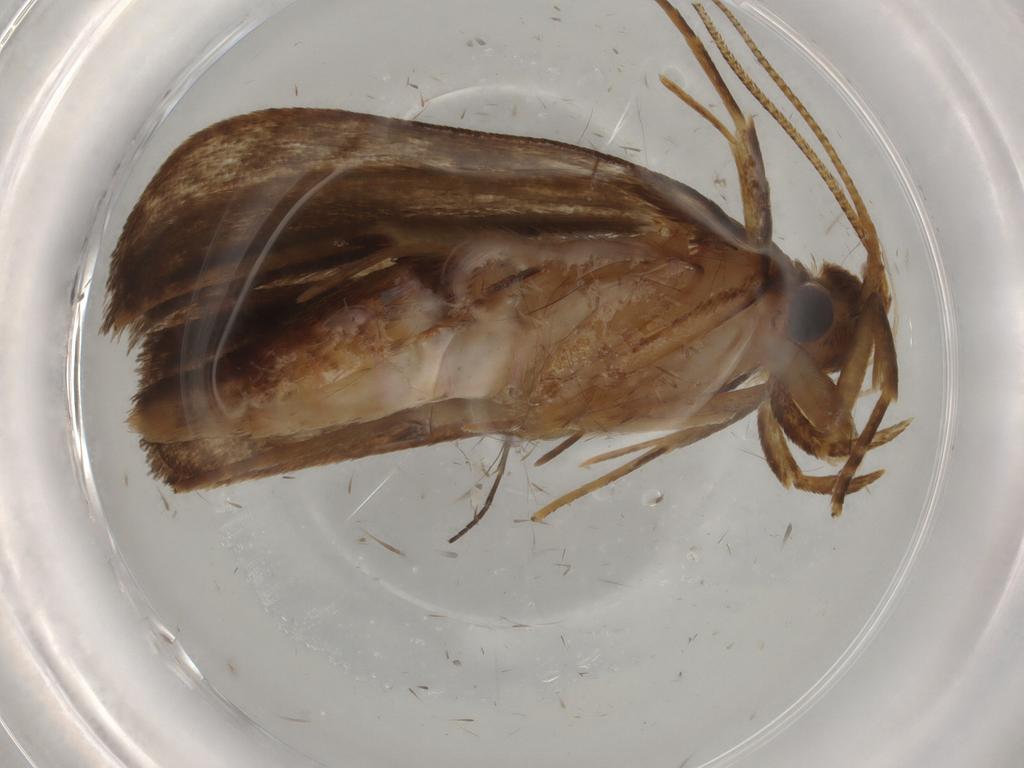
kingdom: Animalia
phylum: Arthropoda
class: Insecta
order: Lepidoptera
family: Autostichidae
